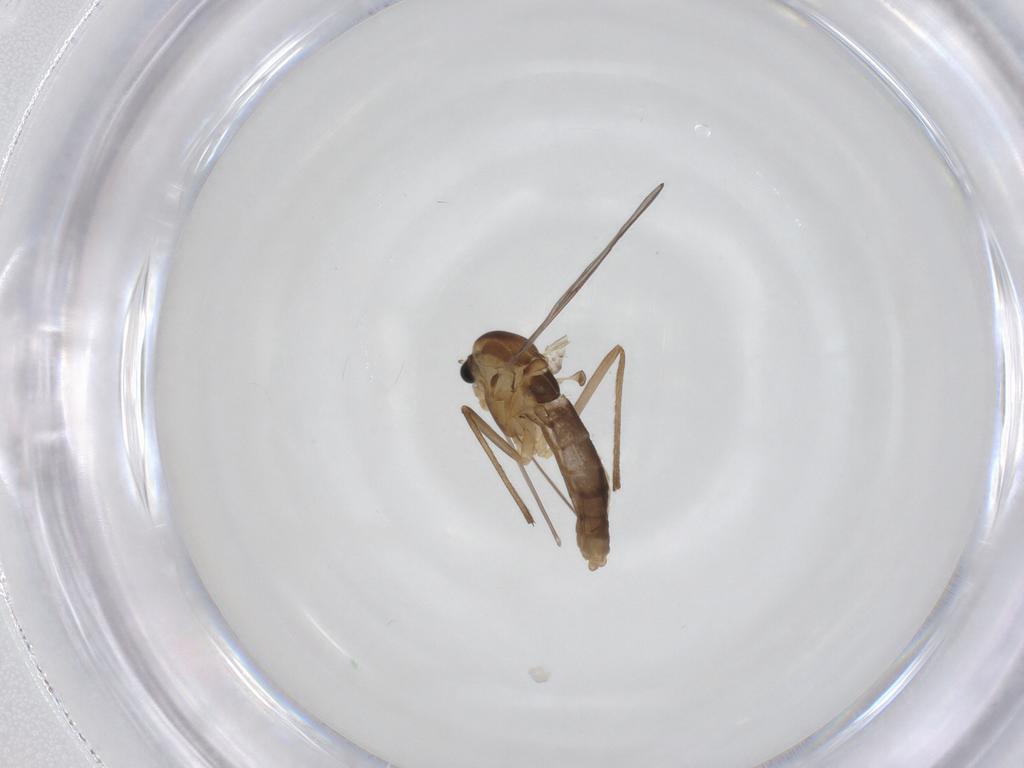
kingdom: Animalia
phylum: Arthropoda
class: Insecta
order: Diptera
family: Chironomidae
